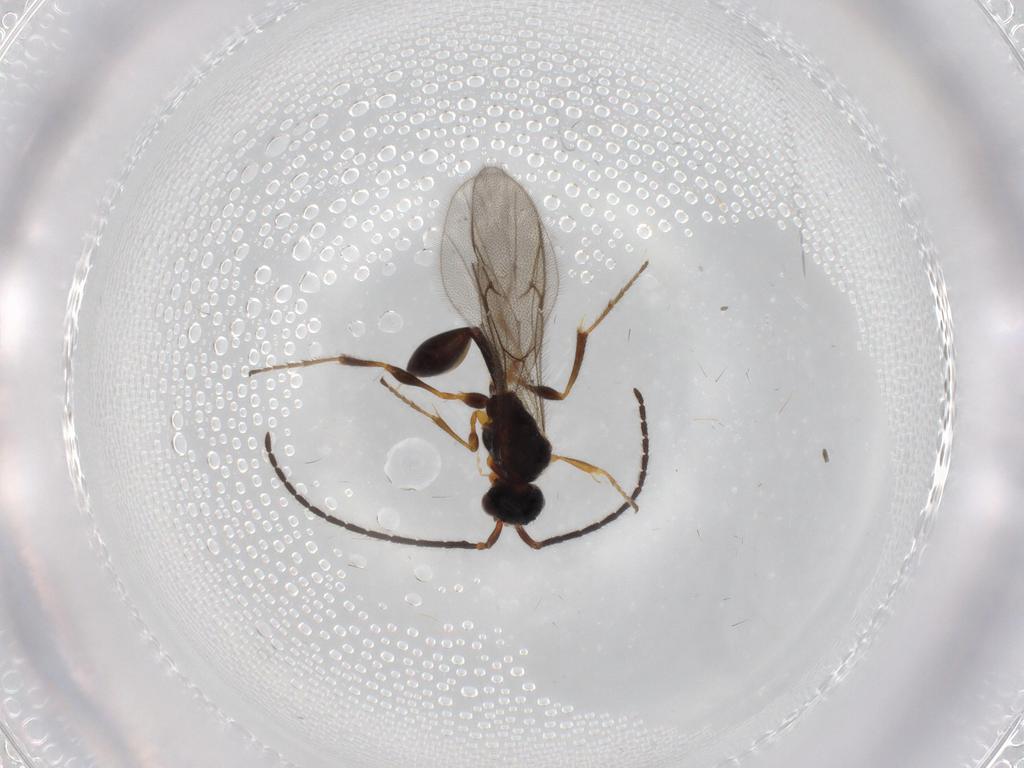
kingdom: Animalia
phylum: Arthropoda
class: Insecta
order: Hymenoptera
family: Diapriidae
